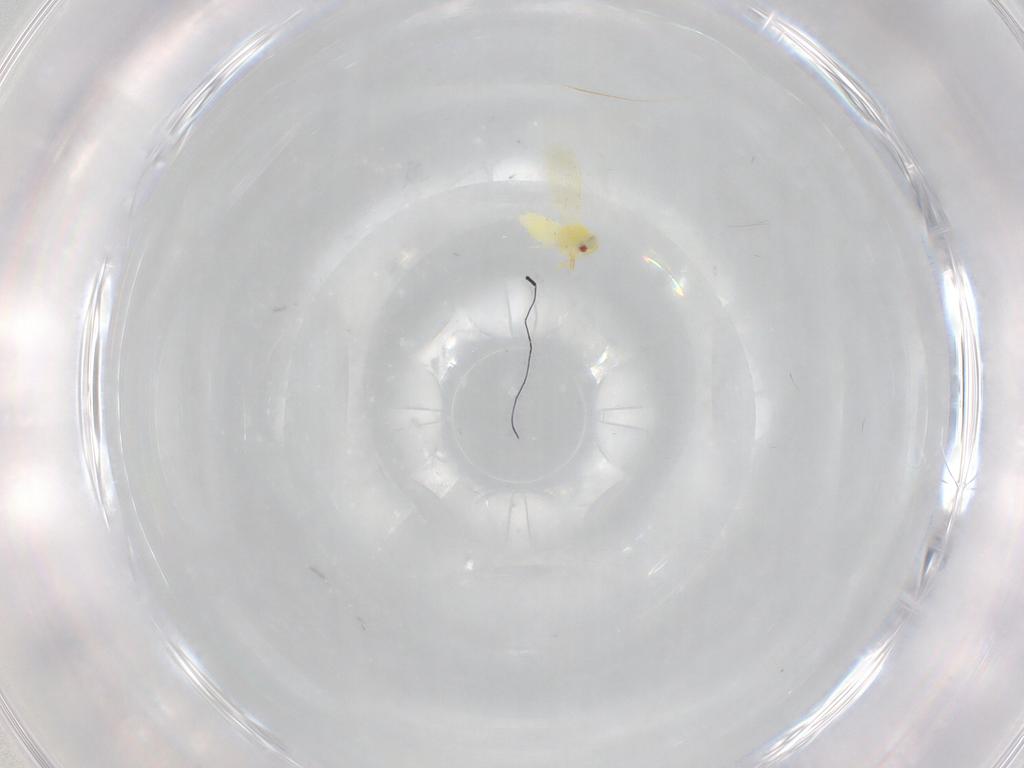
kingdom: Animalia
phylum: Arthropoda
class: Insecta
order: Hemiptera
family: Aleyrodidae
